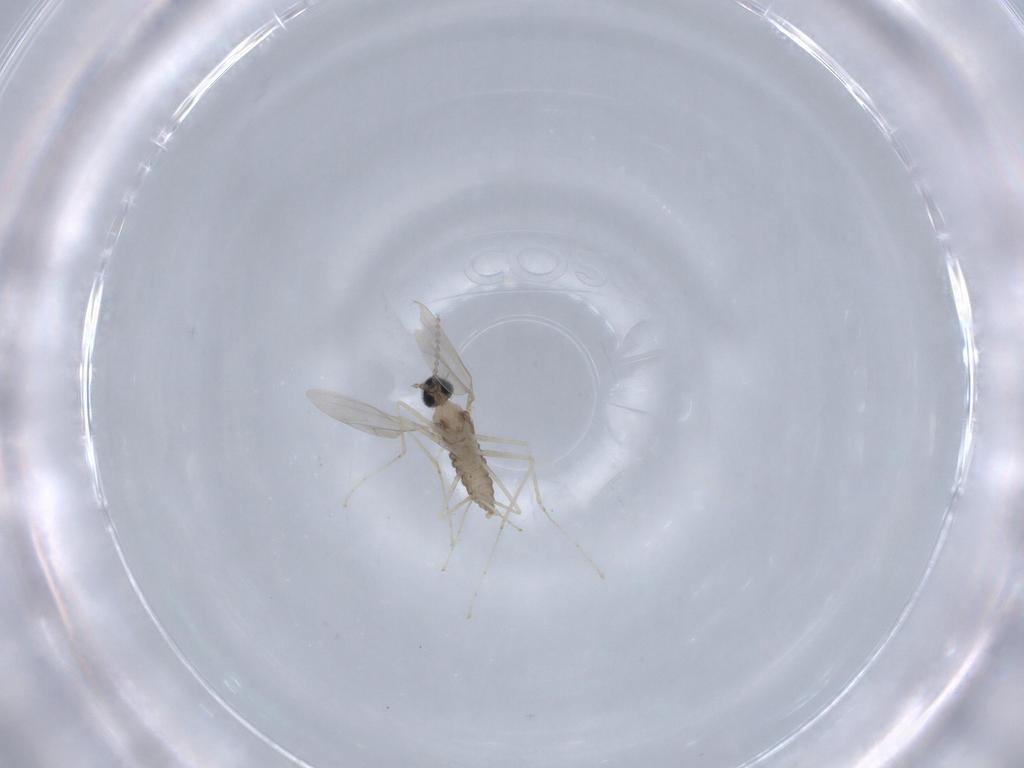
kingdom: Animalia
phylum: Arthropoda
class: Insecta
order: Diptera
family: Cecidomyiidae
